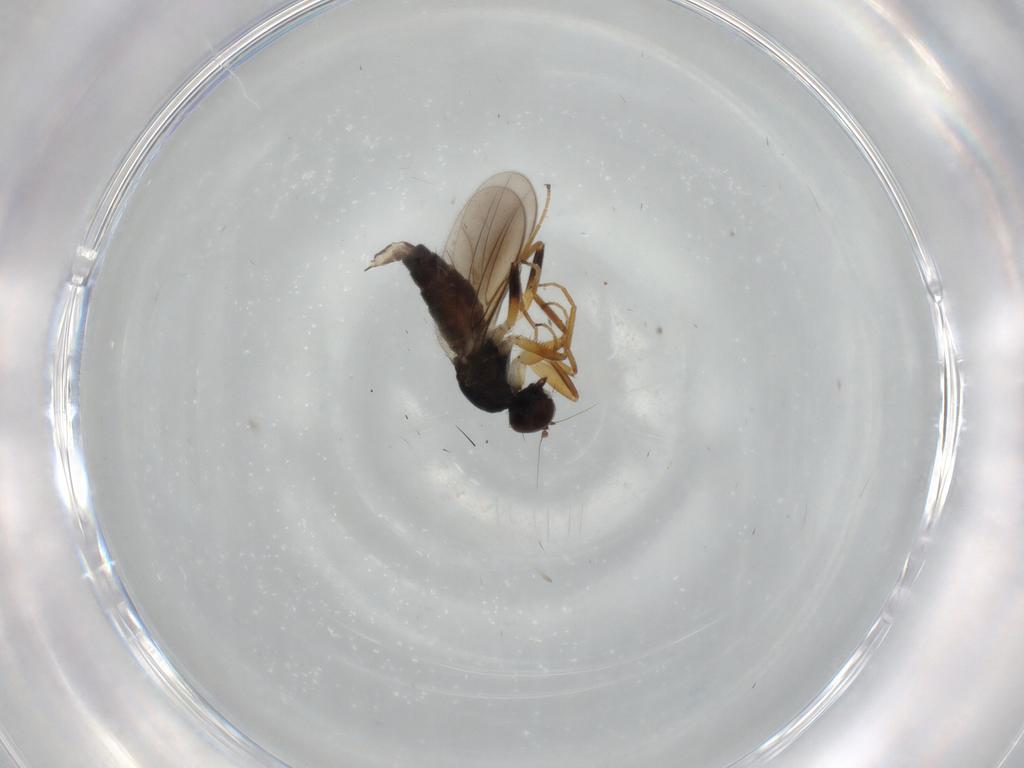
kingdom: Animalia
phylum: Arthropoda
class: Insecta
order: Diptera
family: Hybotidae
